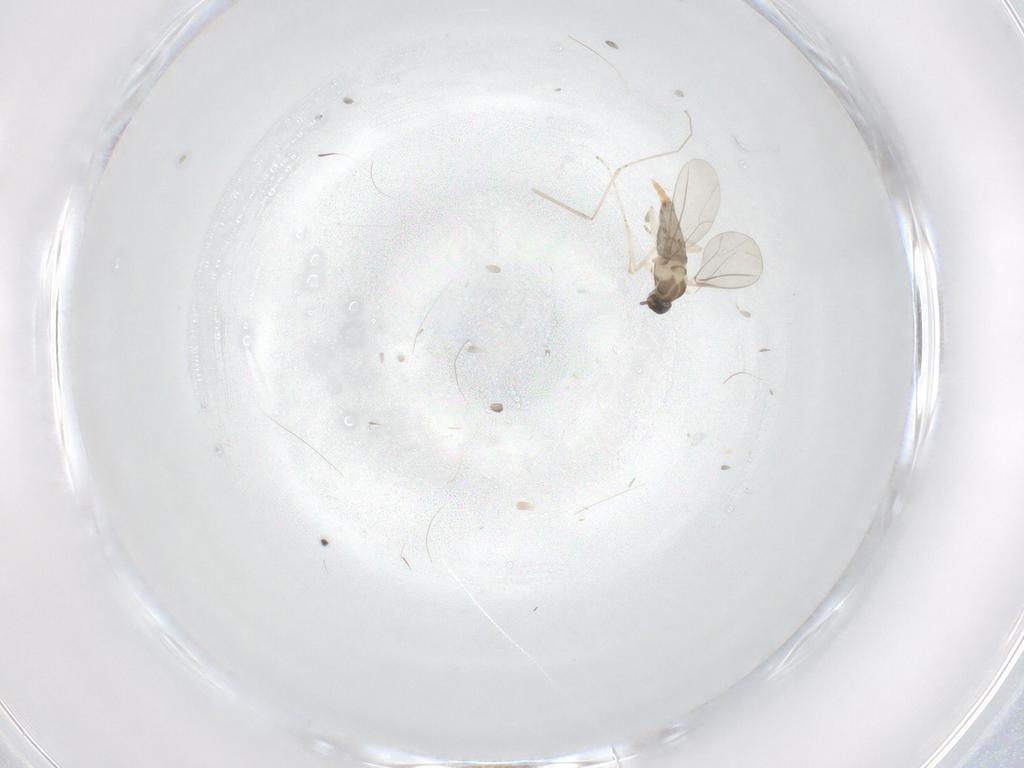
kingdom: Animalia
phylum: Arthropoda
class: Insecta
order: Diptera
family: Cecidomyiidae
